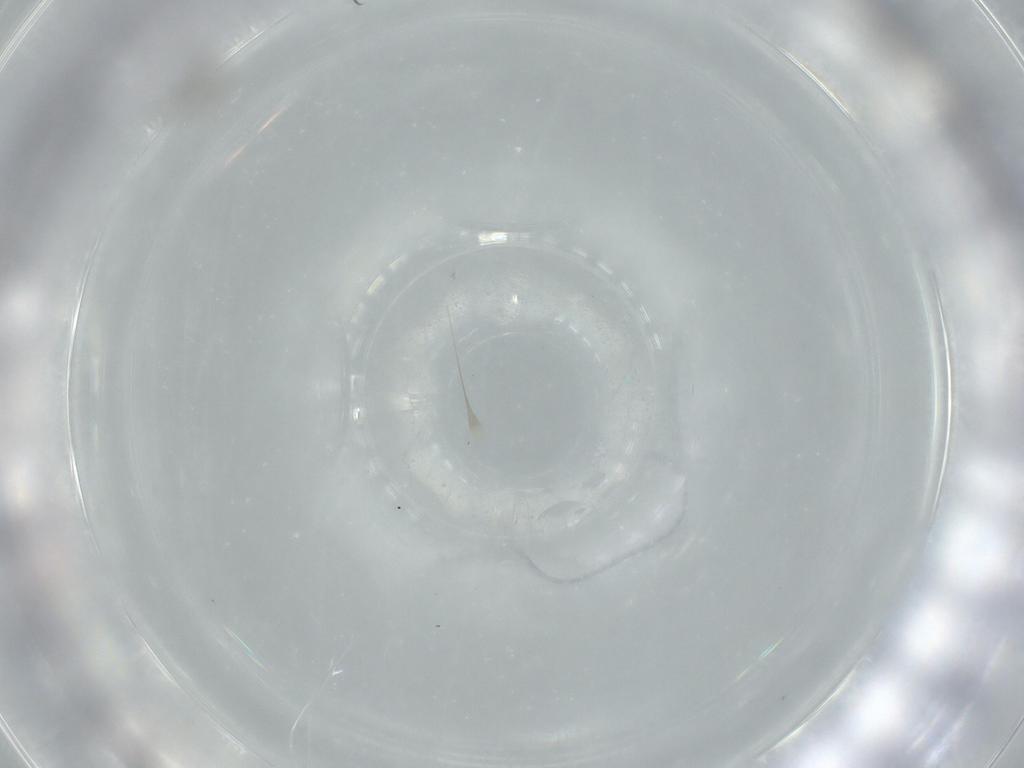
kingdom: Animalia
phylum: Arthropoda
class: Insecta
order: Diptera
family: Cecidomyiidae
